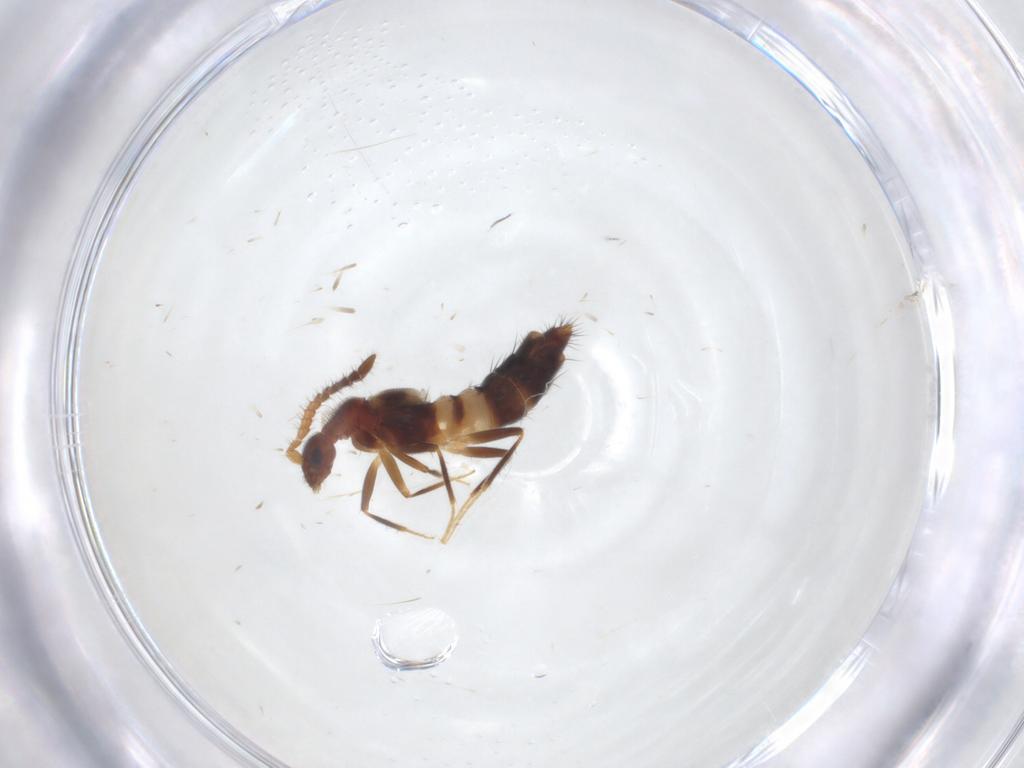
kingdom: Animalia
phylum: Arthropoda
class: Insecta
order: Coleoptera
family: Staphylinidae
